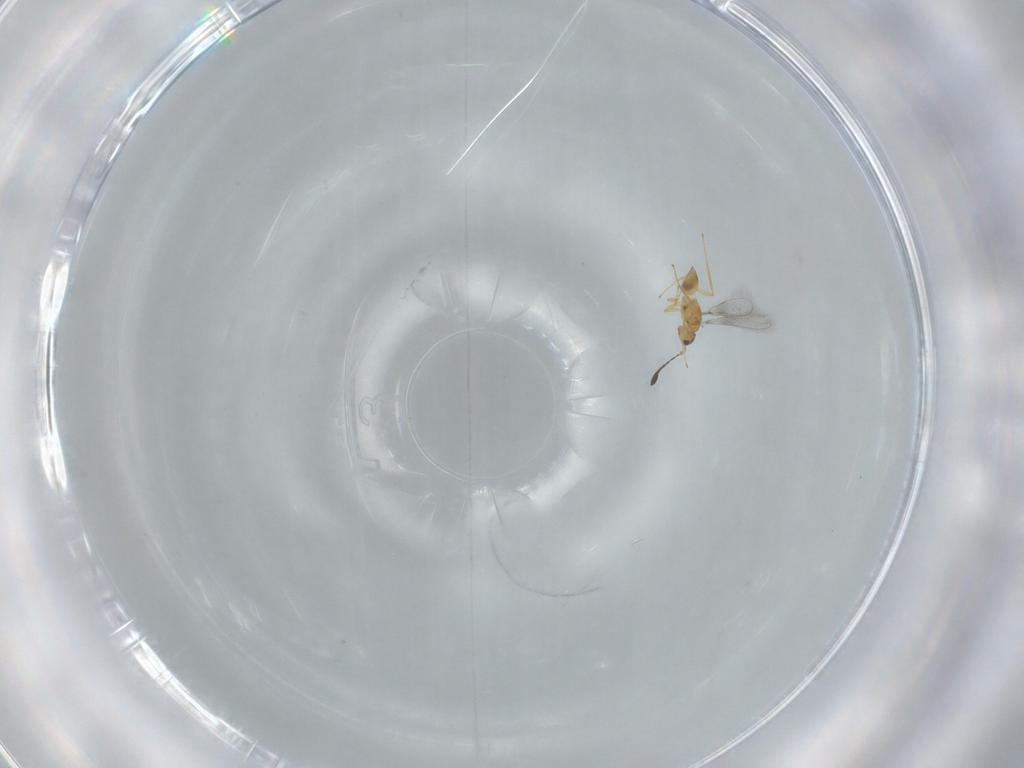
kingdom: Animalia
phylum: Arthropoda
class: Insecta
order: Hymenoptera
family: Mymaridae
